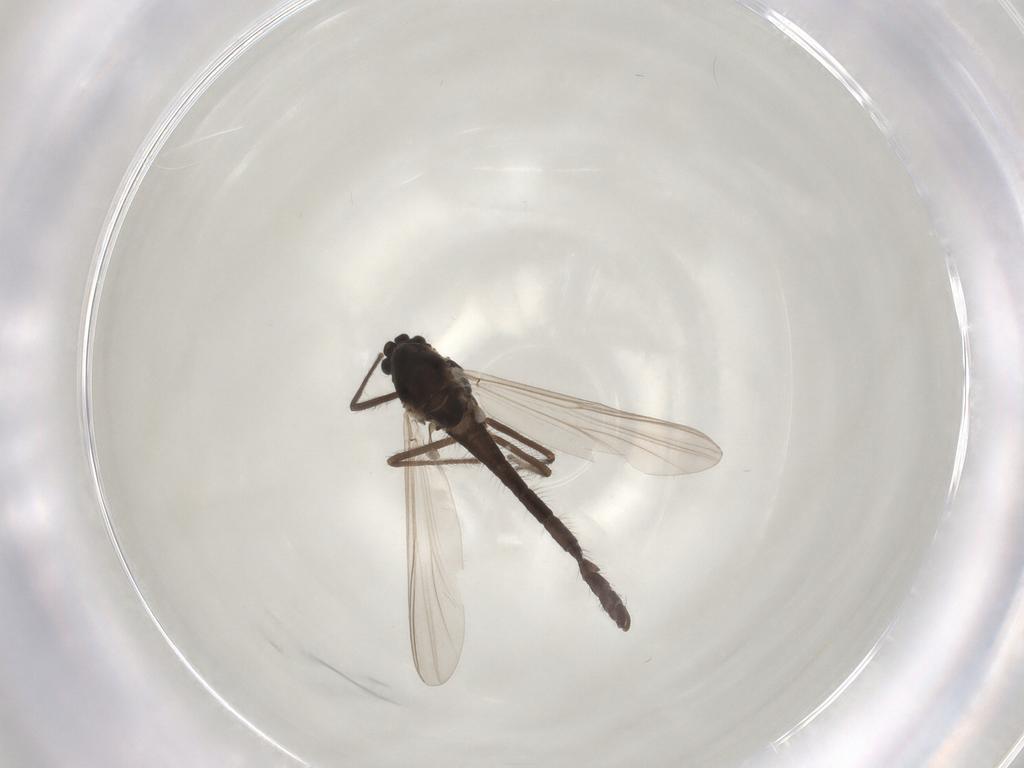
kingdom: Animalia
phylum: Arthropoda
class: Insecta
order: Diptera
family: Chironomidae
